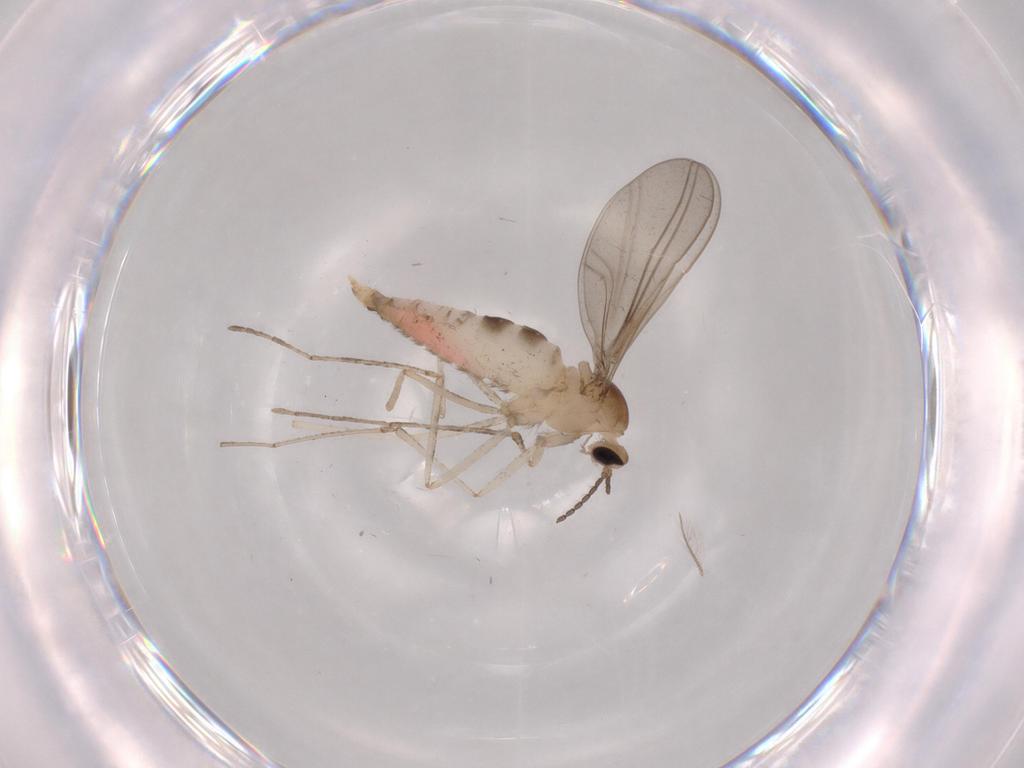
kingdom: Animalia
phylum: Arthropoda
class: Insecta
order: Diptera
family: Chironomidae
